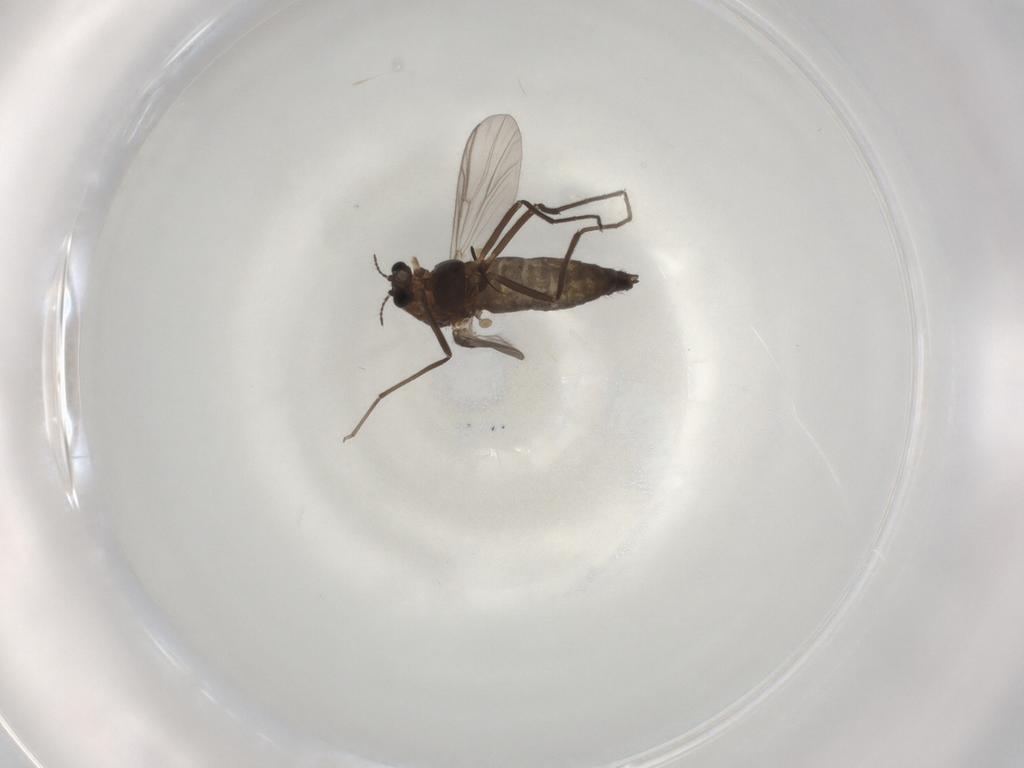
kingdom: Animalia
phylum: Arthropoda
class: Insecta
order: Diptera
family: Chironomidae
